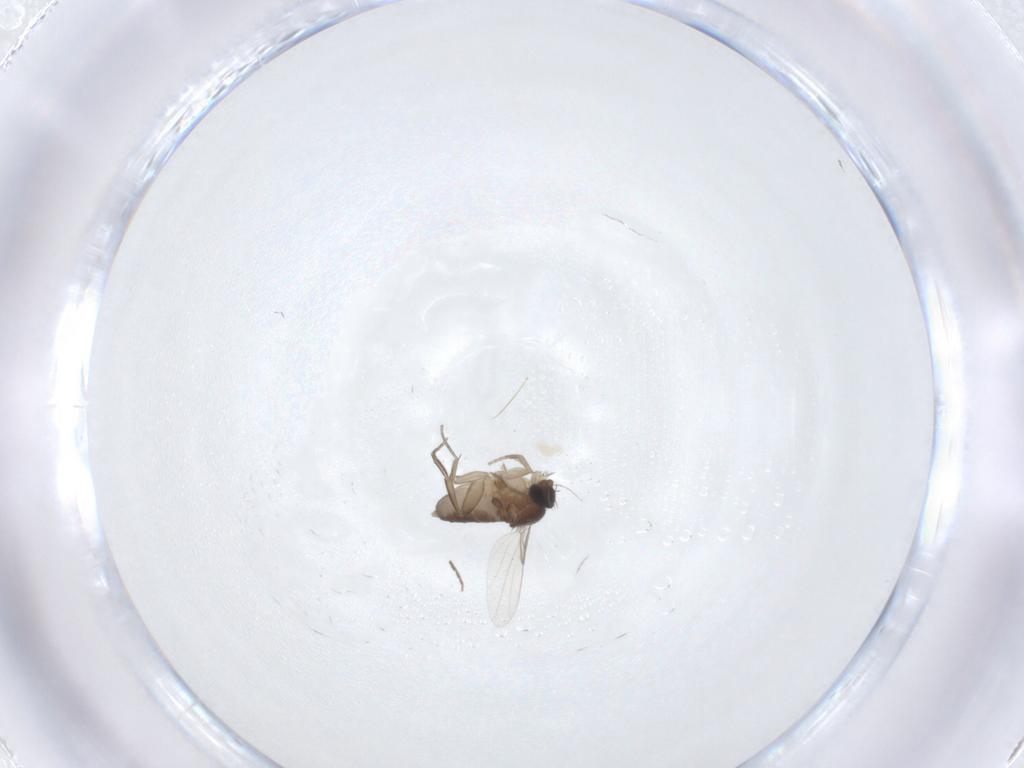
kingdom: Animalia
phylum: Arthropoda
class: Insecta
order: Diptera
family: Phoridae
